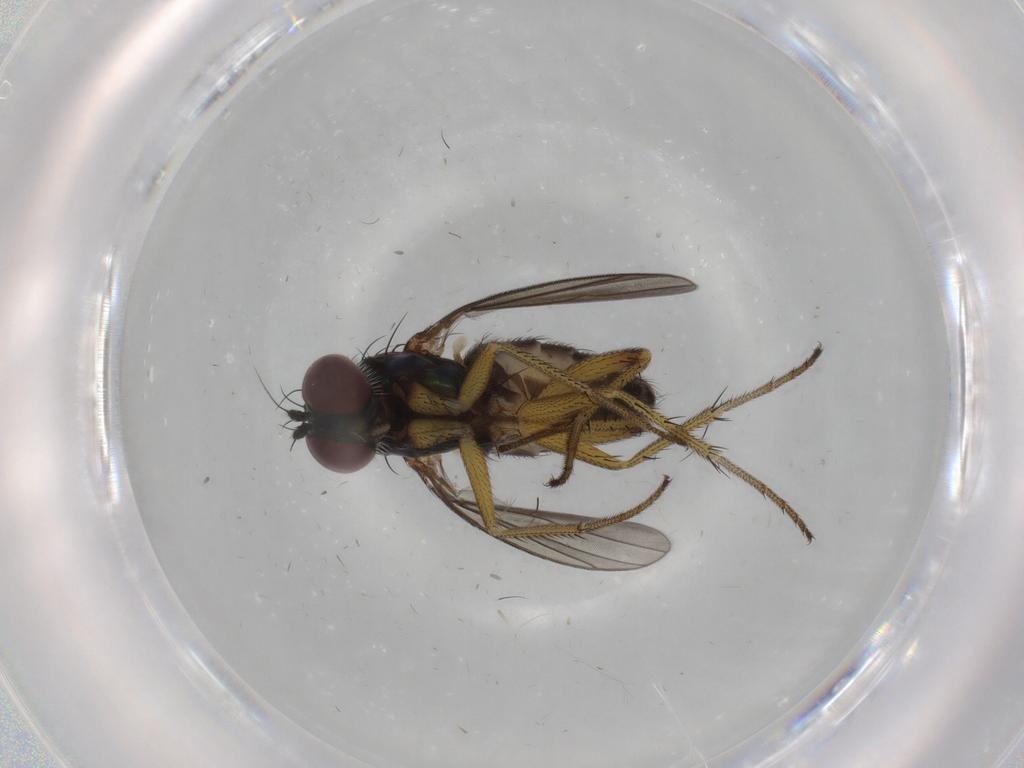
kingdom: Animalia
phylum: Arthropoda
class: Insecta
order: Diptera
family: Dolichopodidae
